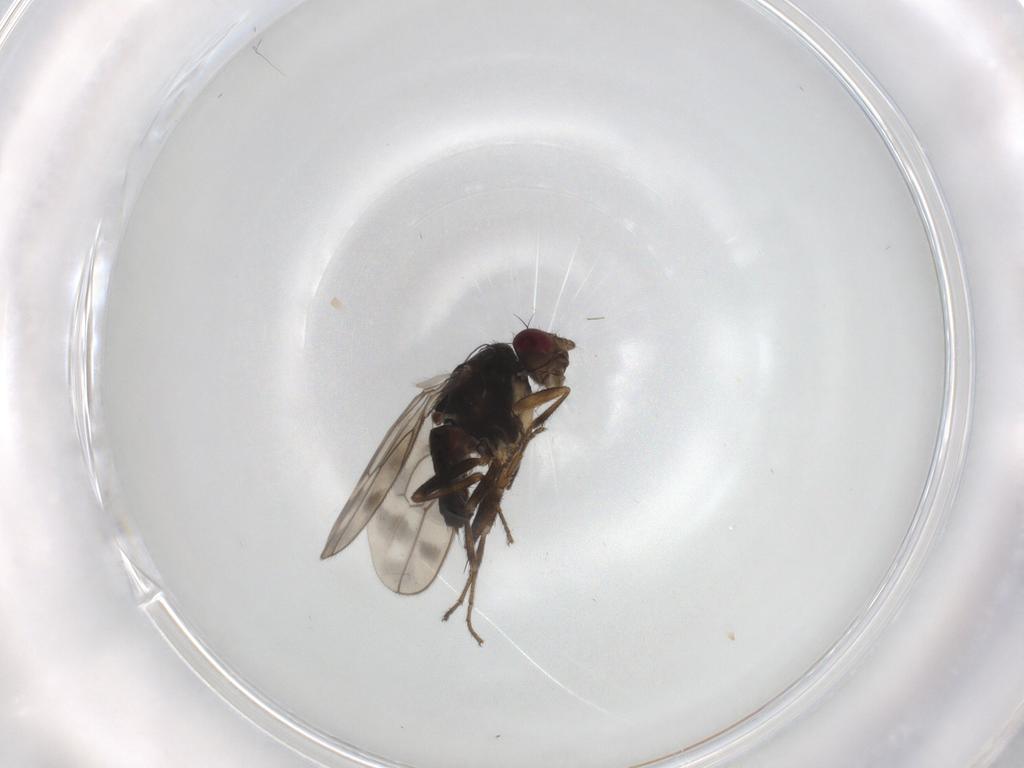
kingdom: Animalia
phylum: Arthropoda
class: Insecta
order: Diptera
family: Sphaeroceridae
